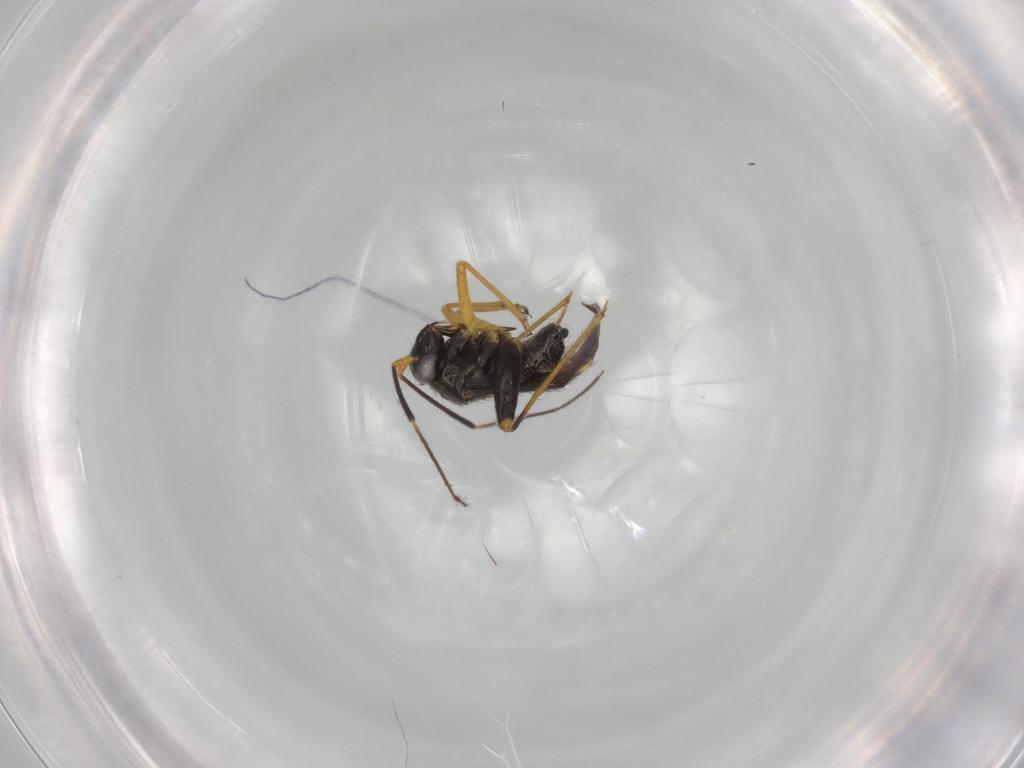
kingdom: Animalia
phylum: Arthropoda
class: Insecta
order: Hemiptera
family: Miridae
